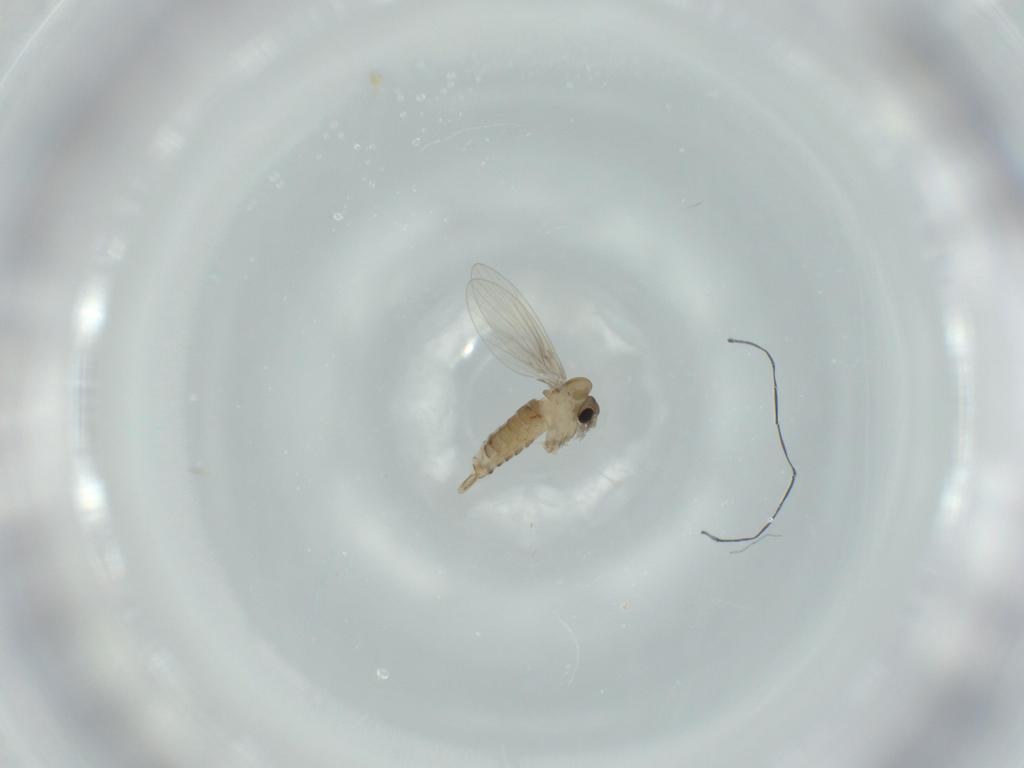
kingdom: Animalia
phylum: Arthropoda
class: Insecta
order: Diptera
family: Psychodidae
